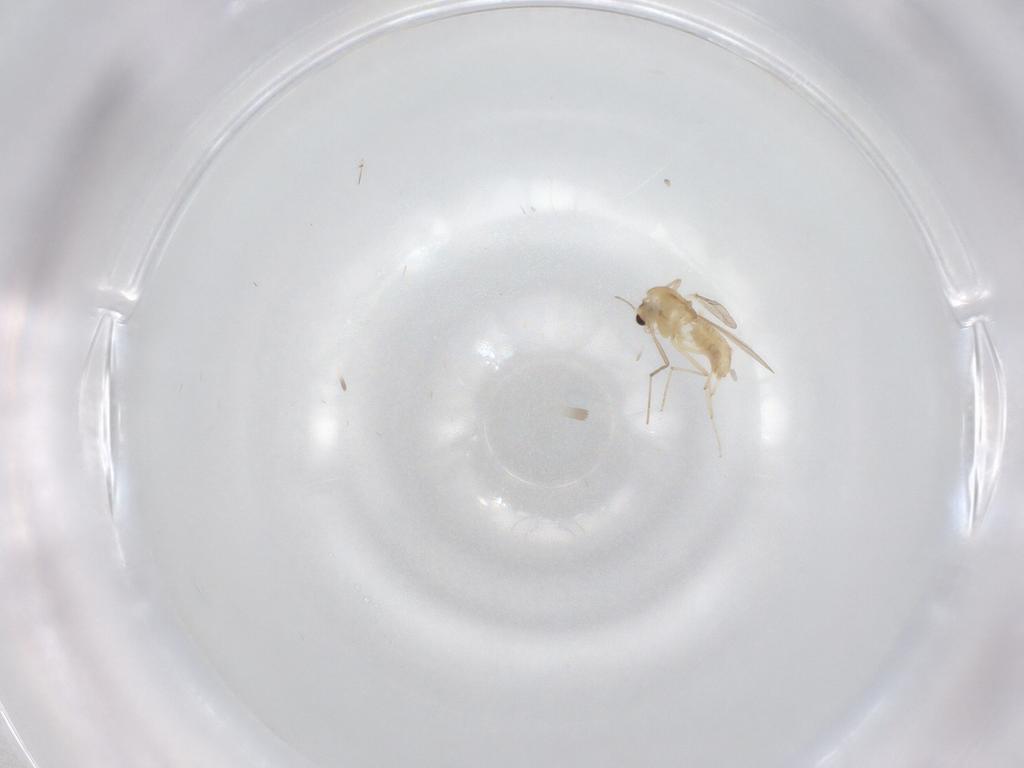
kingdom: Animalia
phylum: Arthropoda
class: Insecta
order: Diptera
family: Chironomidae
